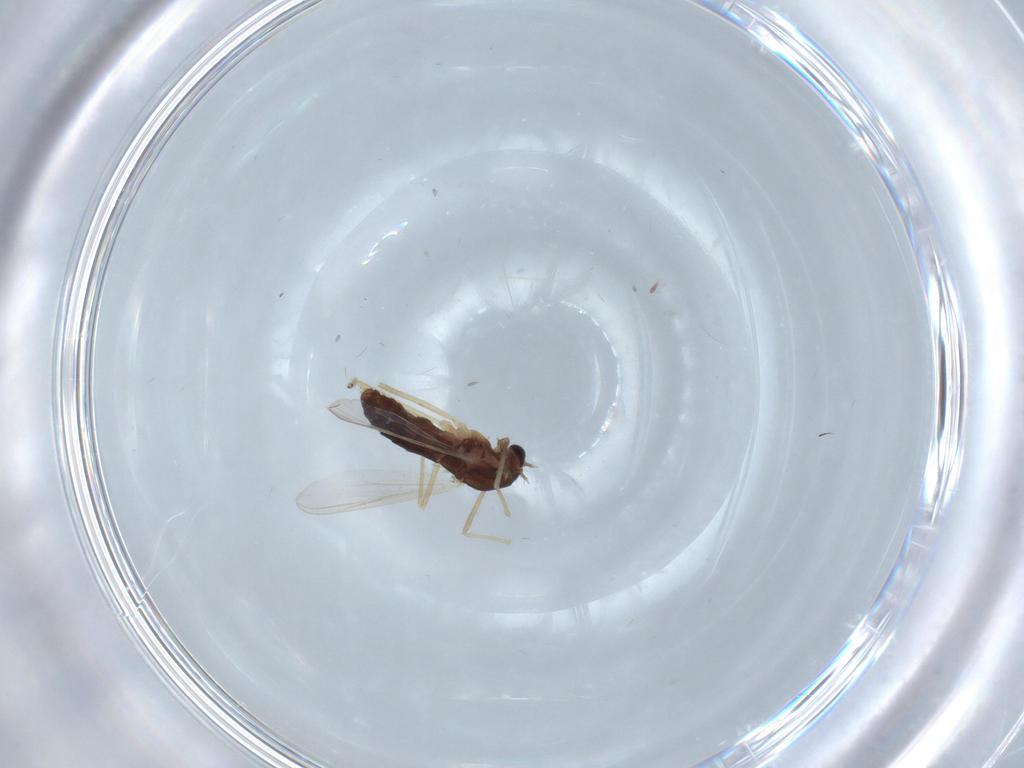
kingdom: Animalia
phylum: Arthropoda
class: Insecta
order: Diptera
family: Chironomidae
